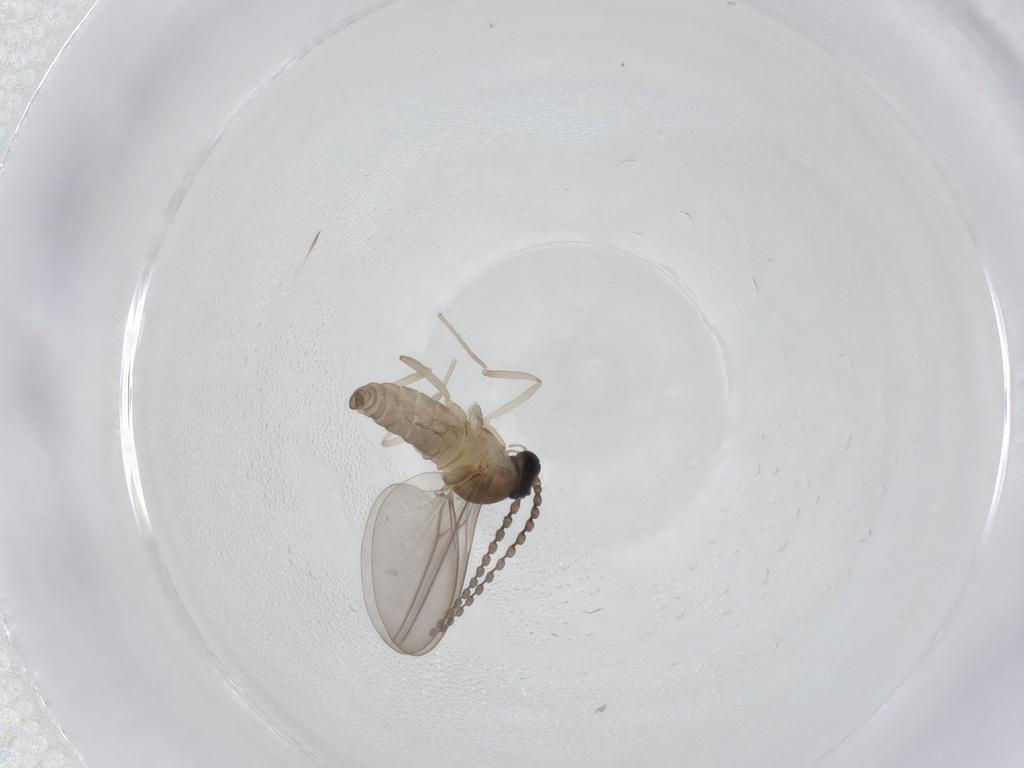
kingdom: Animalia
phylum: Arthropoda
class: Insecta
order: Diptera
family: Cecidomyiidae
